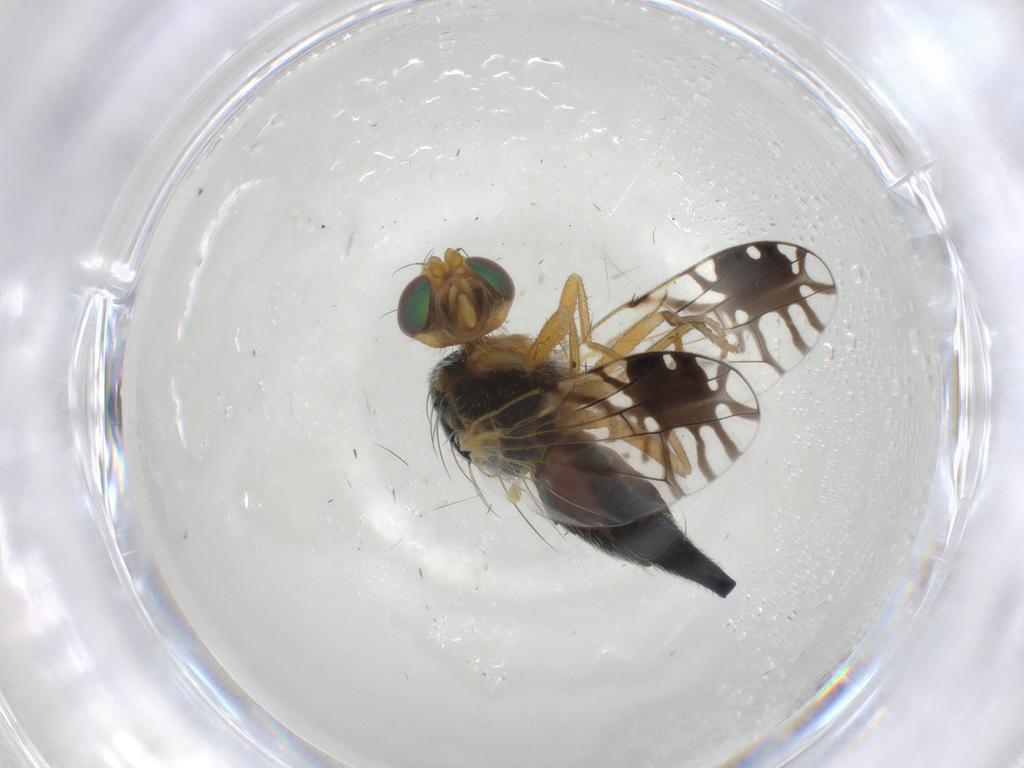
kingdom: Animalia
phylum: Arthropoda
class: Insecta
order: Diptera
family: Tephritidae
